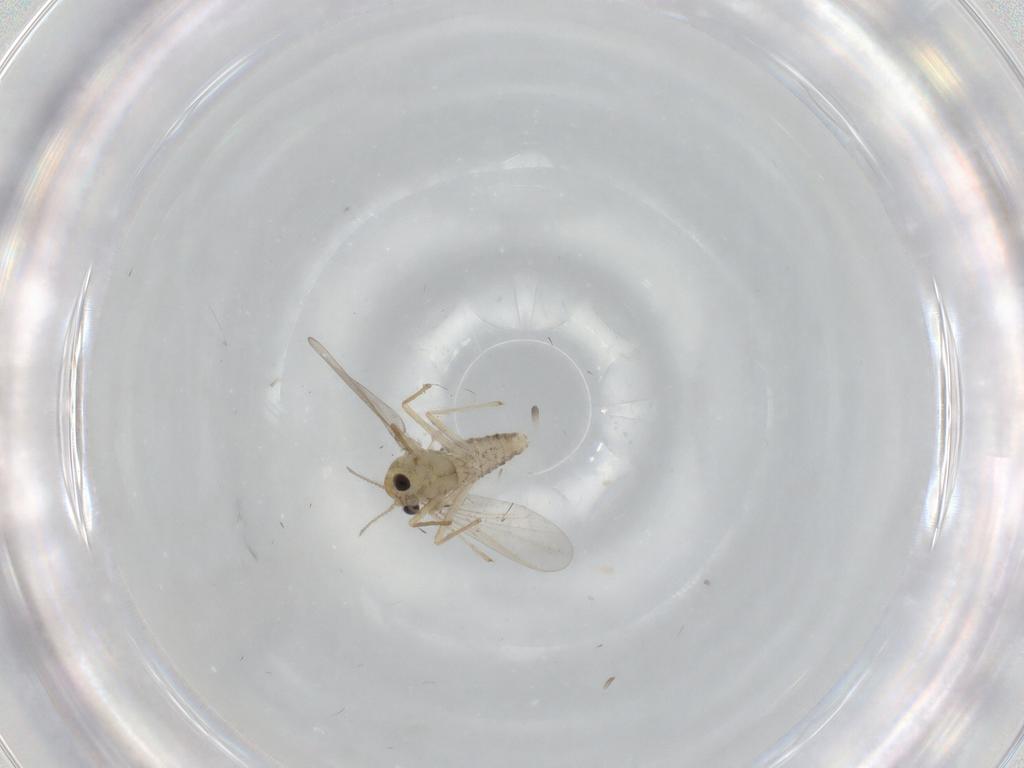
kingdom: Animalia
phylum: Arthropoda
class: Insecta
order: Diptera
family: Chironomidae
